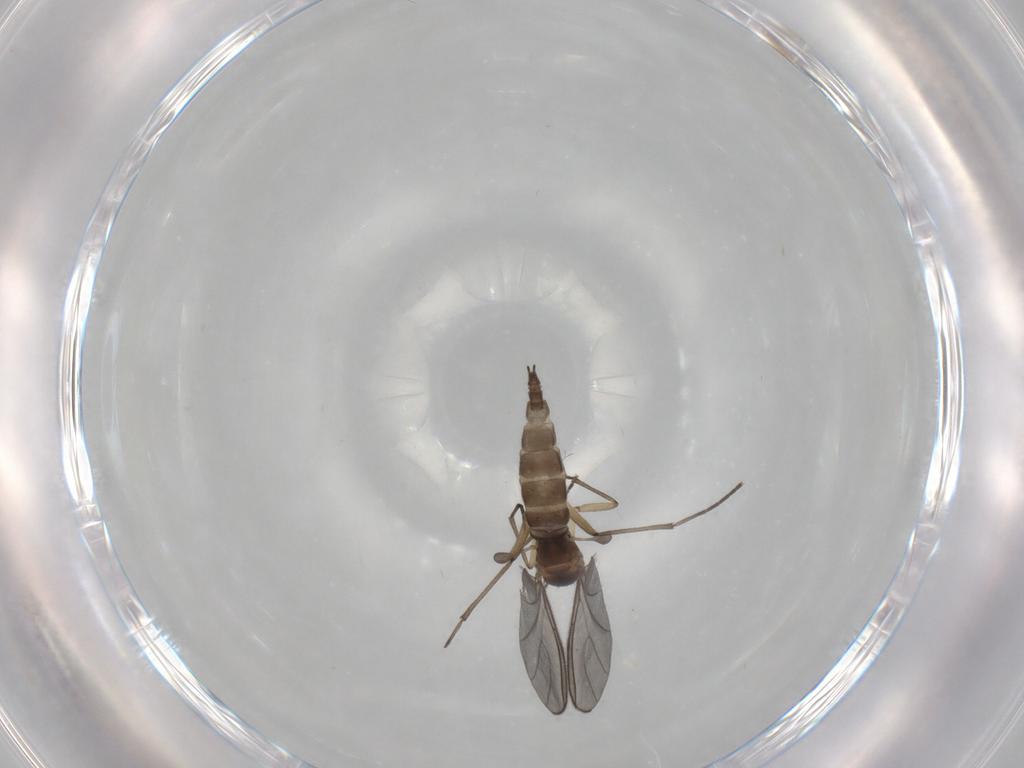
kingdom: Animalia
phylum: Arthropoda
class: Insecta
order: Diptera
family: Sciaridae
